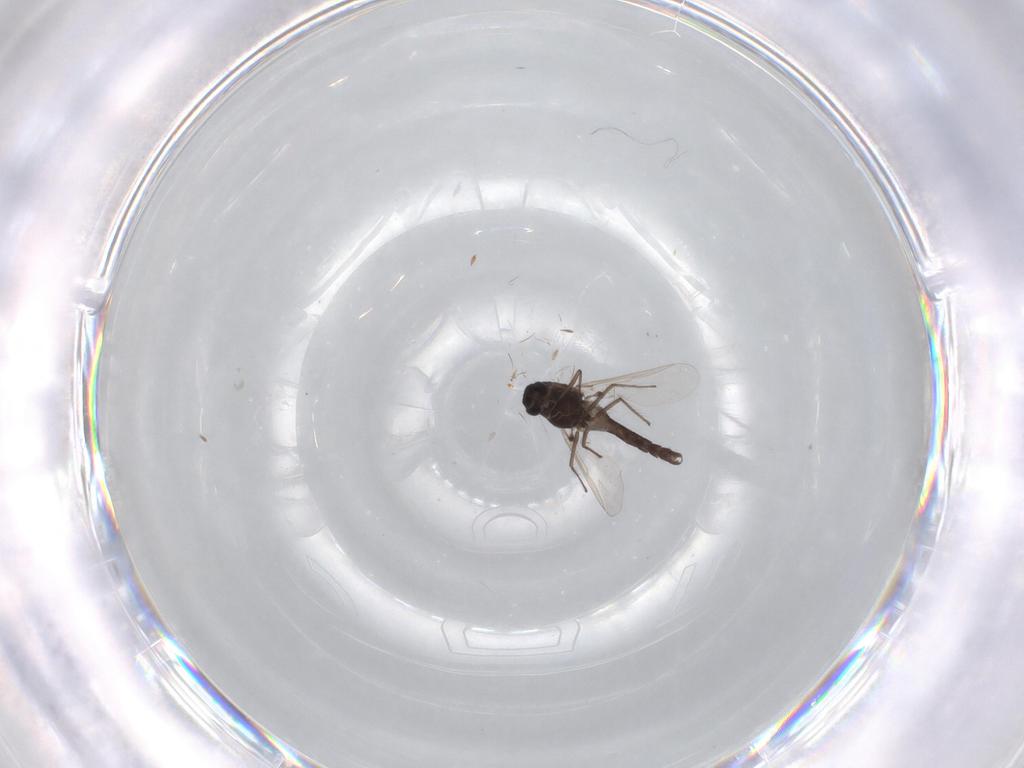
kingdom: Animalia
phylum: Arthropoda
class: Insecta
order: Diptera
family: Chironomidae
